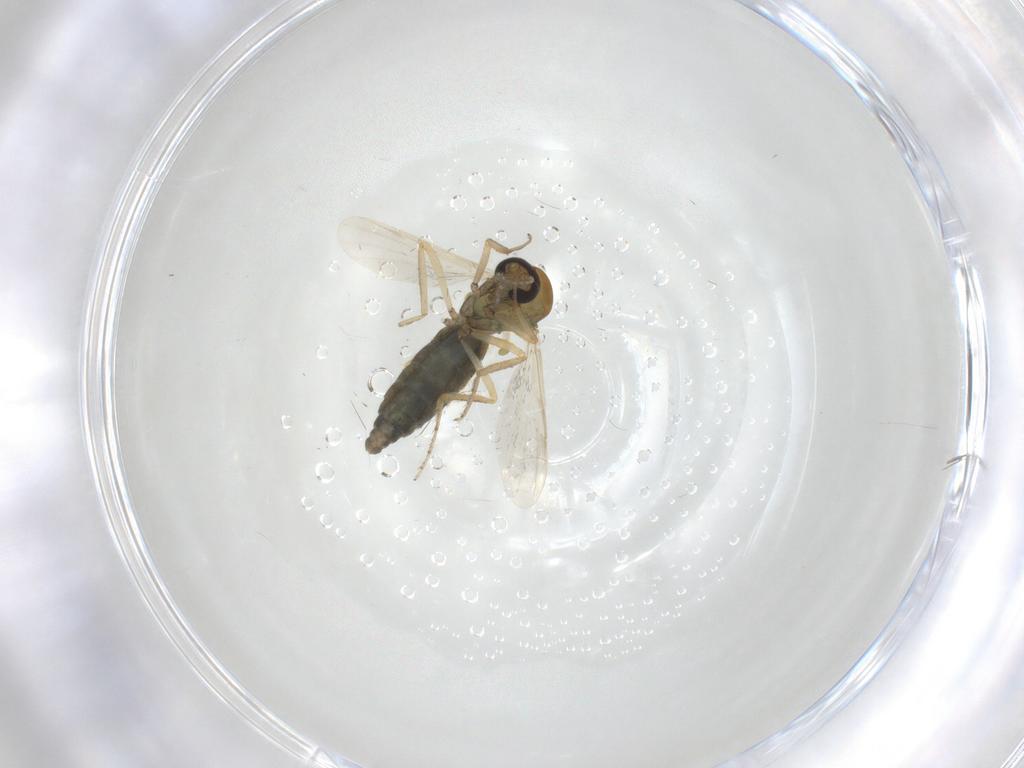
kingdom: Animalia
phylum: Arthropoda
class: Insecta
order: Diptera
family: Ceratopogonidae
